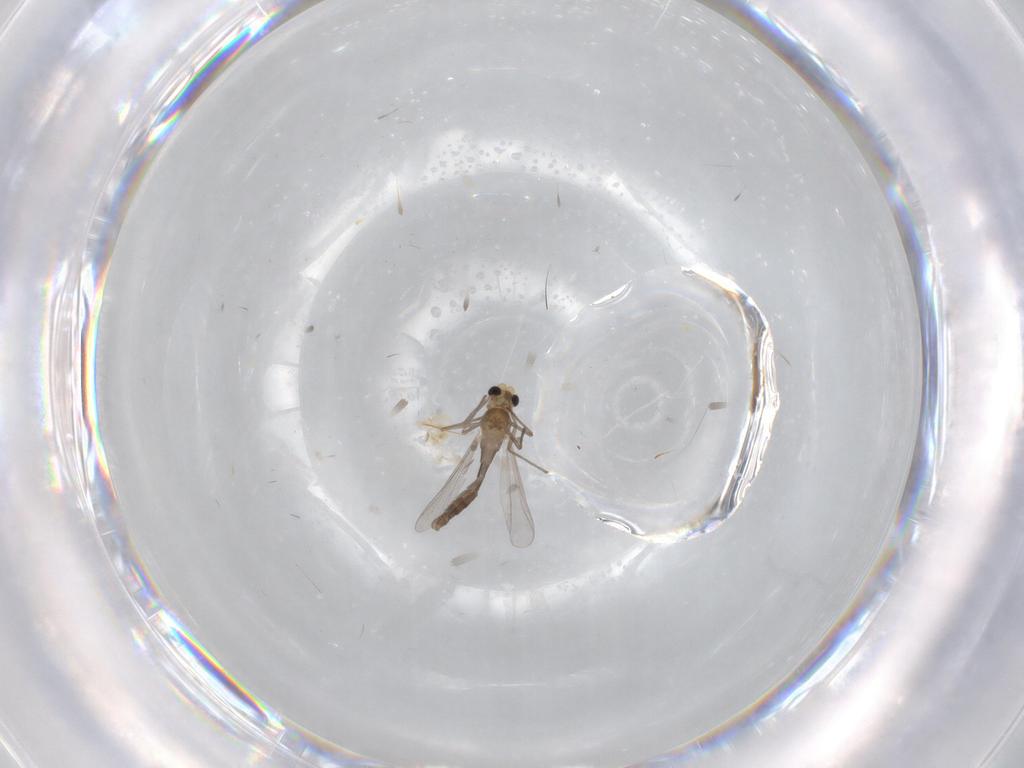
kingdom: Animalia
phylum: Arthropoda
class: Insecta
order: Diptera
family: Chironomidae
